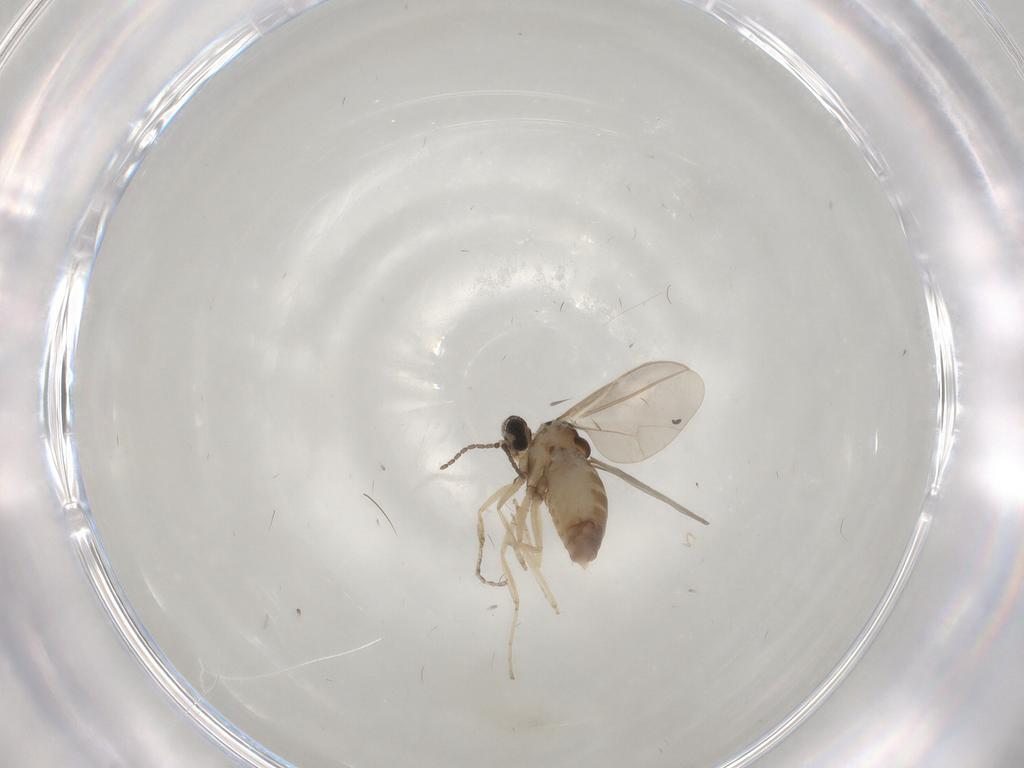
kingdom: Animalia
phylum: Arthropoda
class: Insecta
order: Diptera
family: Cecidomyiidae
